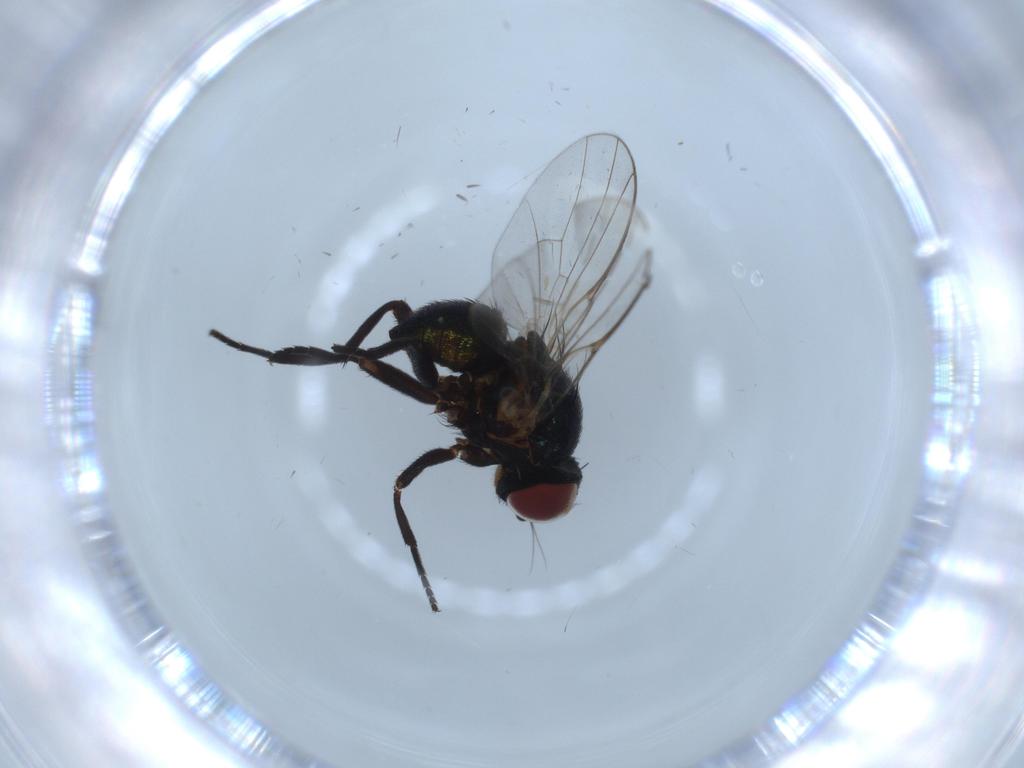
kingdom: Animalia
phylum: Arthropoda
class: Insecta
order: Diptera
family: Agromyzidae
